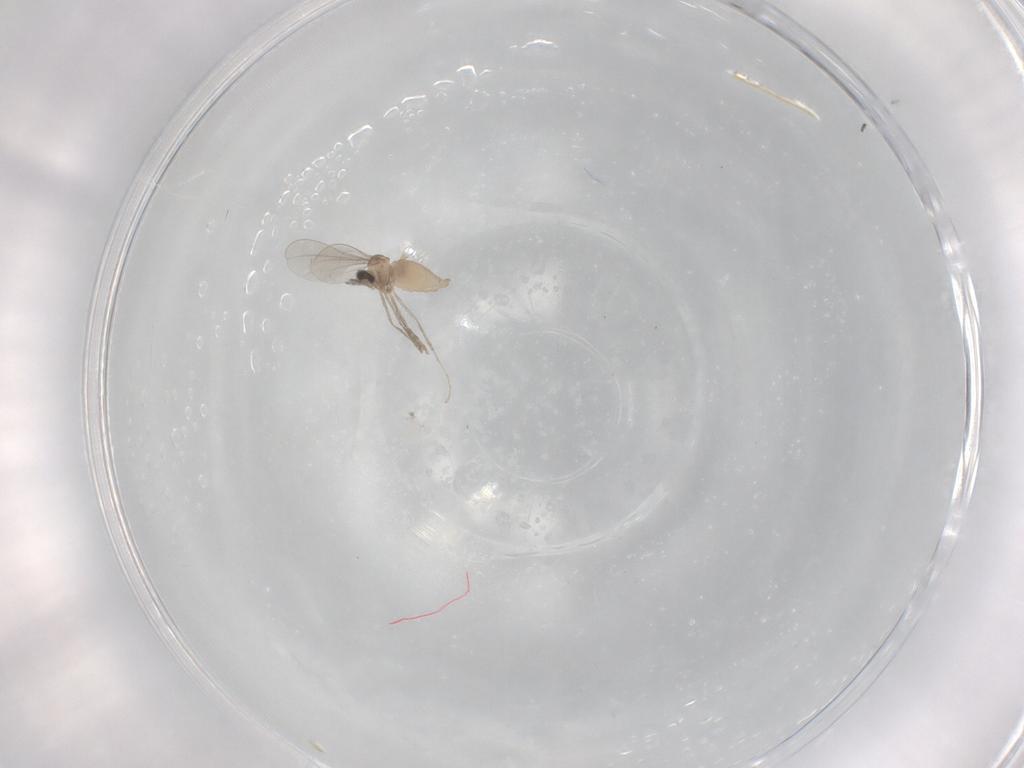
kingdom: Animalia
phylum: Arthropoda
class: Insecta
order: Diptera
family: Cecidomyiidae
